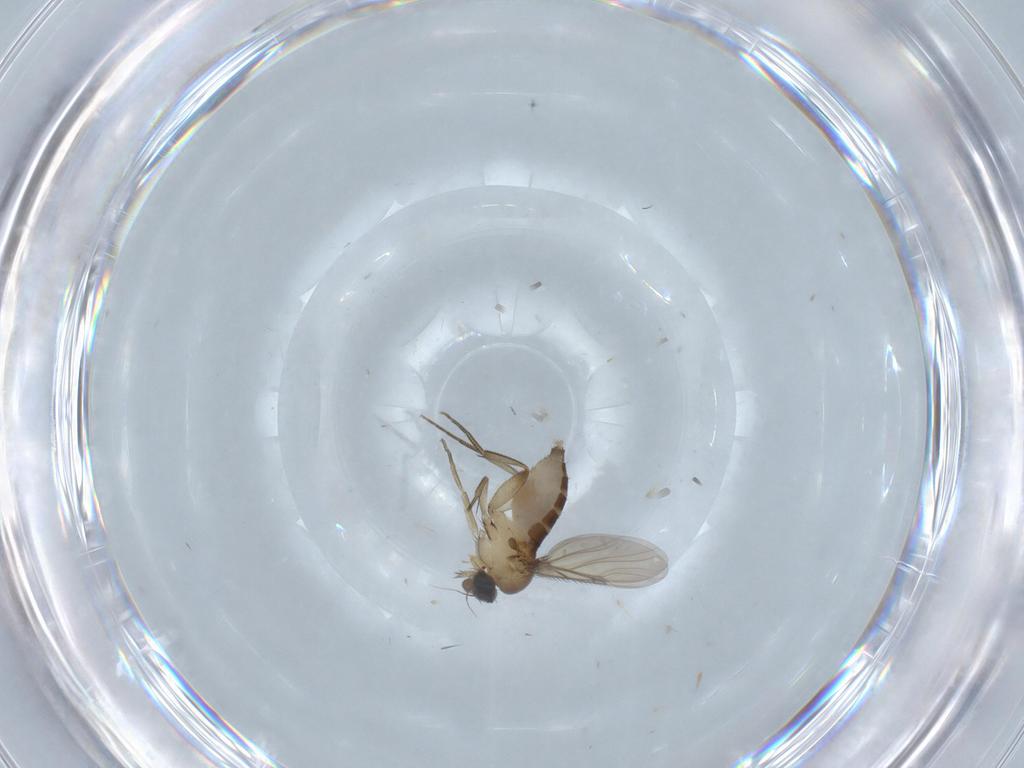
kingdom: Animalia
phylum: Arthropoda
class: Insecta
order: Diptera
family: Phoridae
